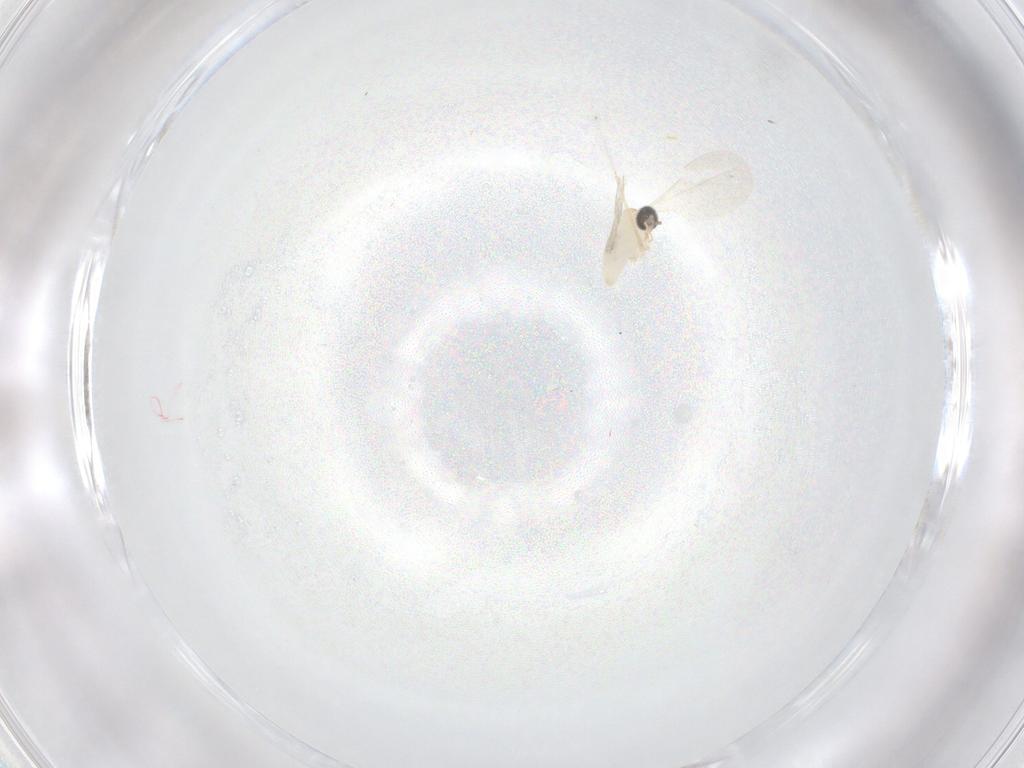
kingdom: Animalia
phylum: Arthropoda
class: Insecta
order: Diptera
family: Cecidomyiidae
